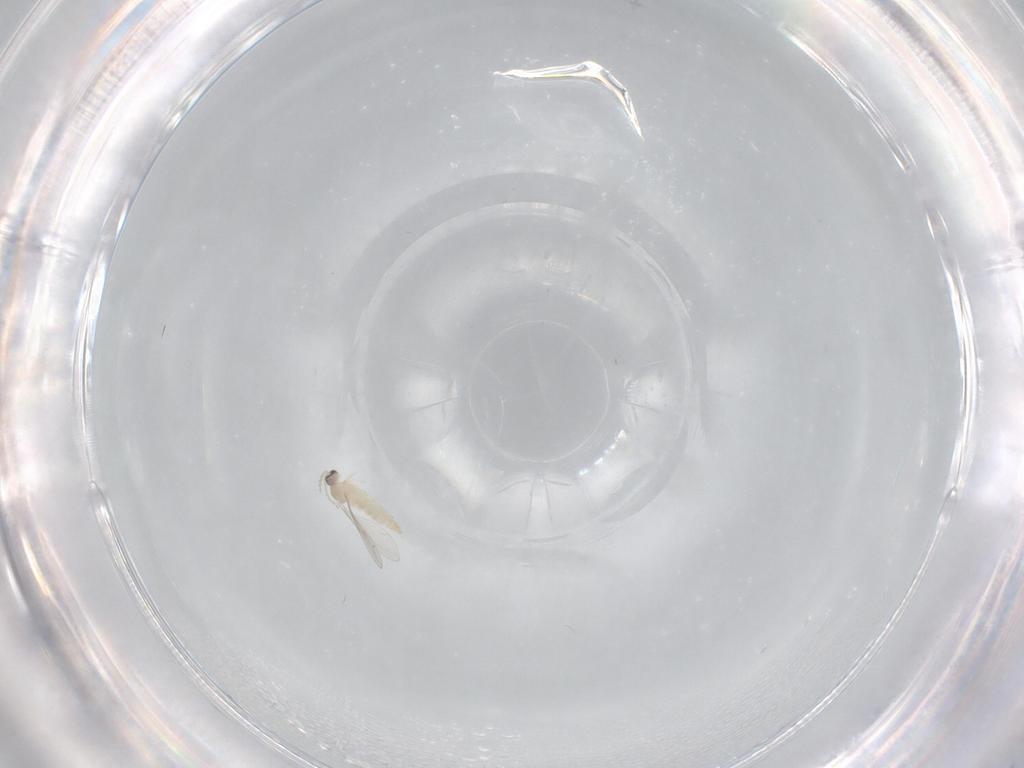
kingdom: Animalia
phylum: Arthropoda
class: Insecta
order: Diptera
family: Cecidomyiidae
